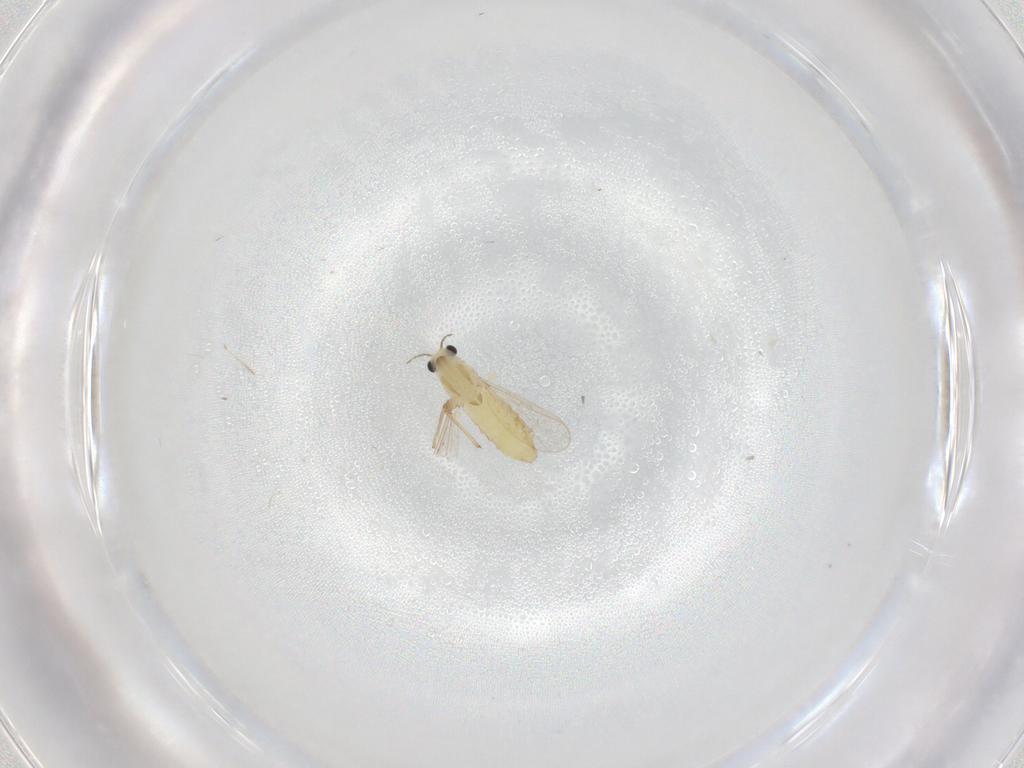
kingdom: Animalia
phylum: Arthropoda
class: Insecta
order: Diptera
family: Chironomidae
